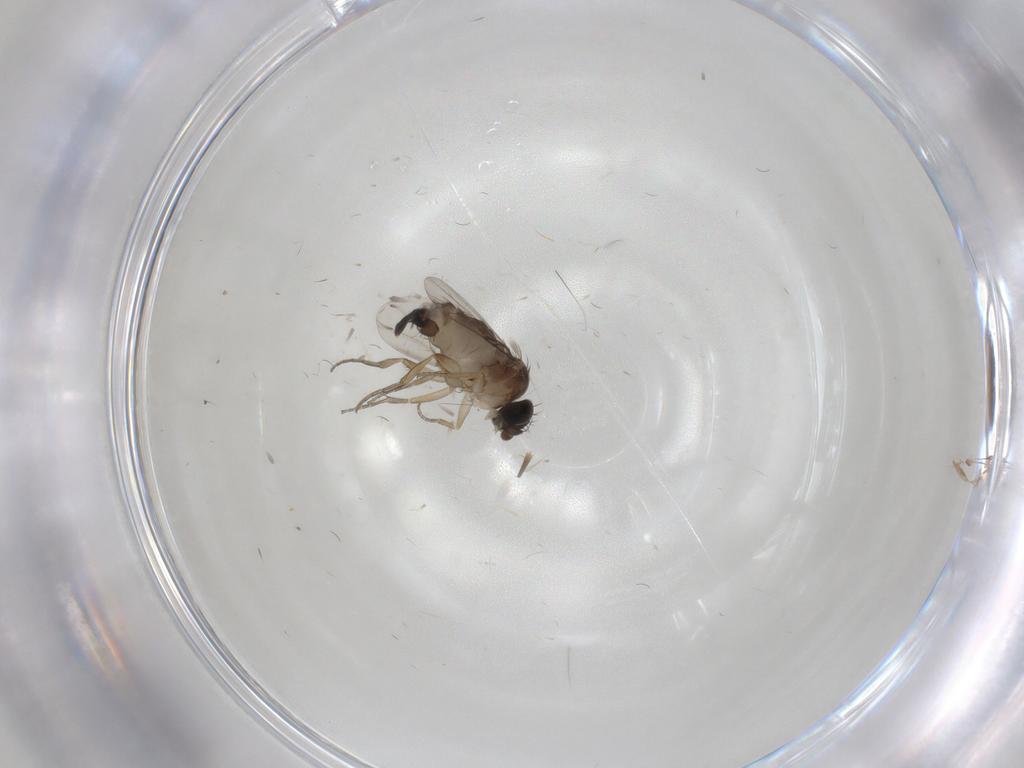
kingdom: Animalia
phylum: Arthropoda
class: Insecta
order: Diptera
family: Phoridae
